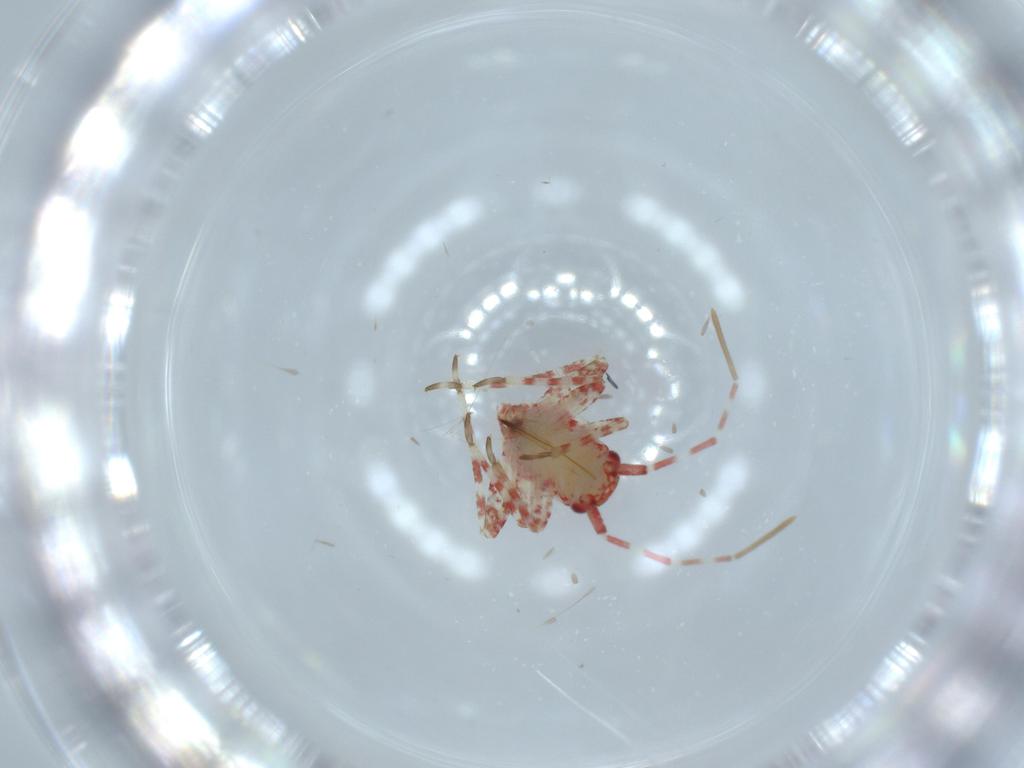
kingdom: Animalia
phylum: Arthropoda
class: Insecta
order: Hemiptera
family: Miridae
